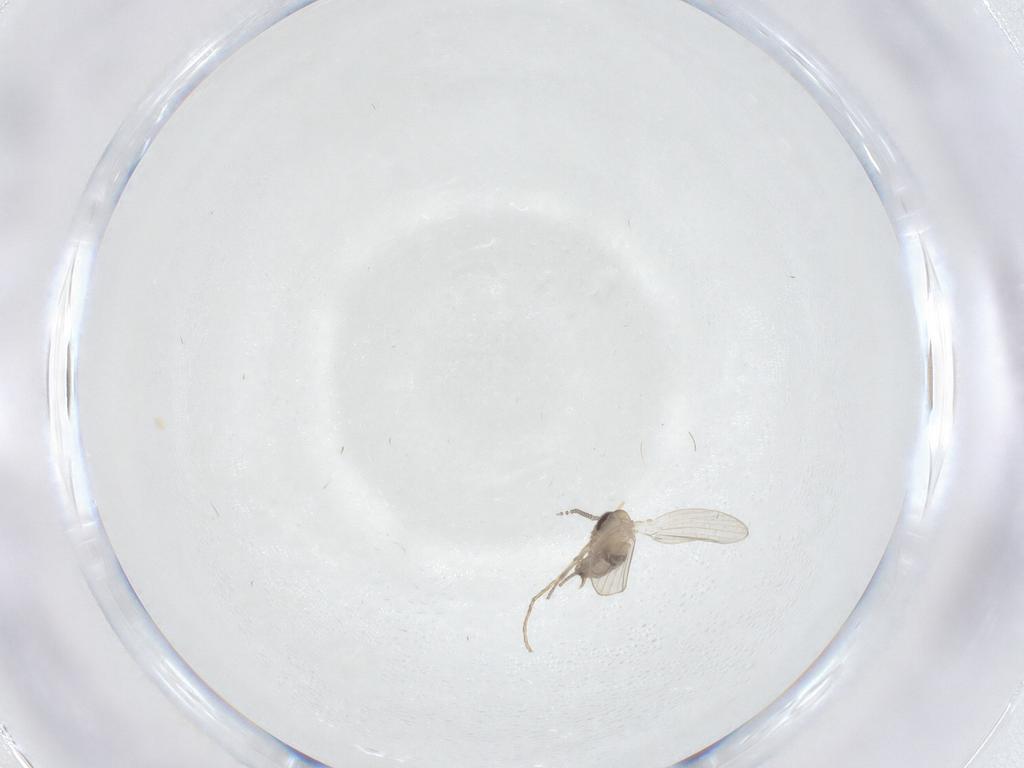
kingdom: Animalia
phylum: Arthropoda
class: Insecta
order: Diptera
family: Psychodidae
